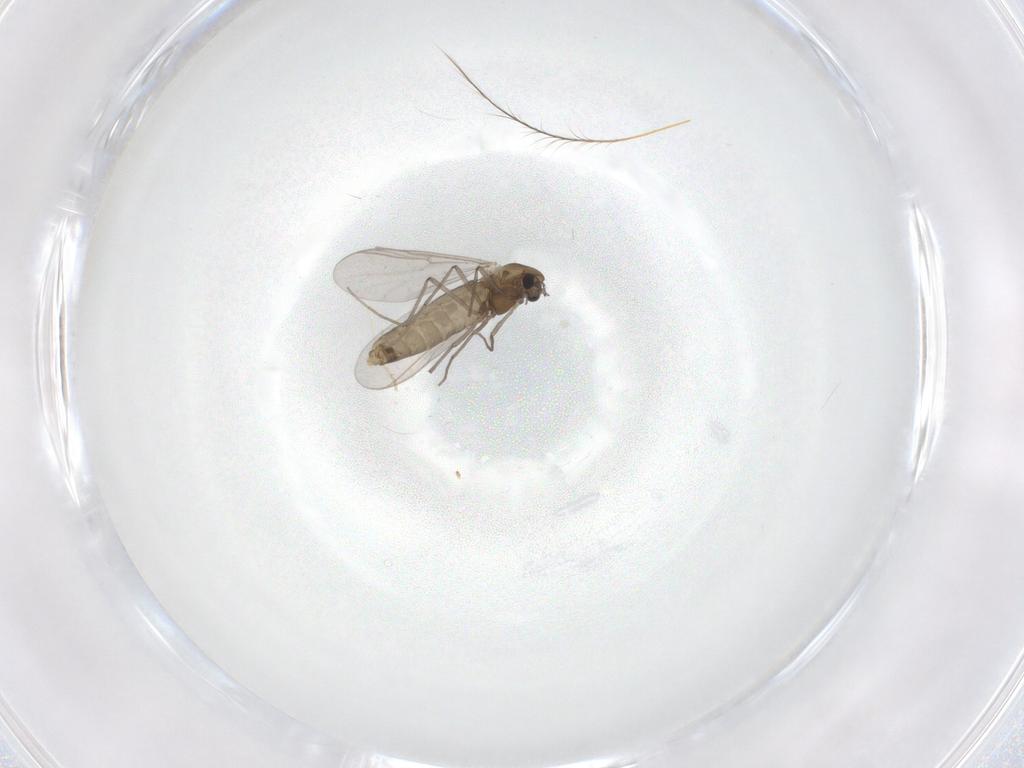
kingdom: Animalia
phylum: Arthropoda
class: Insecta
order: Diptera
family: Chironomidae
